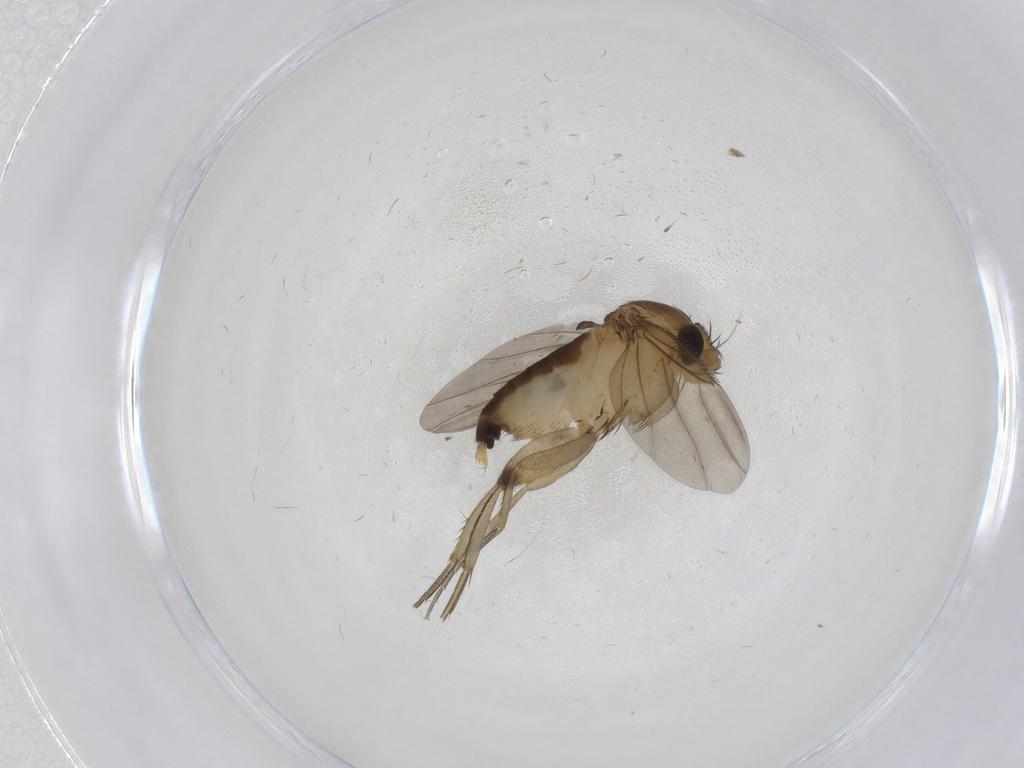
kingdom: Animalia
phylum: Arthropoda
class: Insecta
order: Diptera
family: Phoridae
